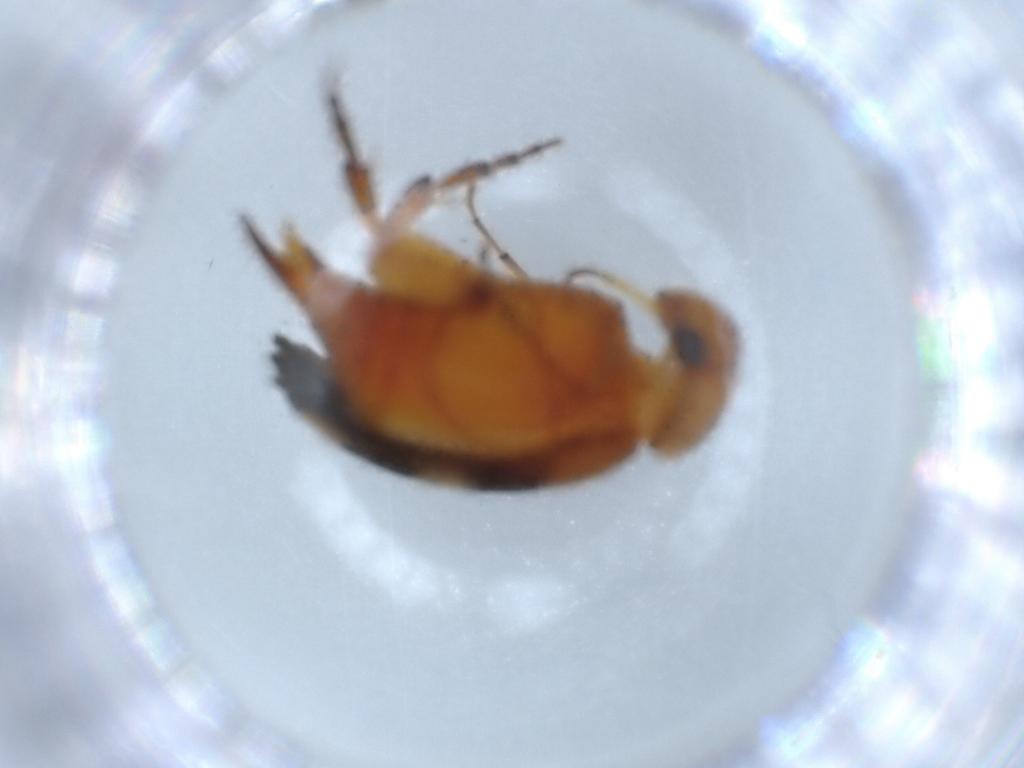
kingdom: Animalia
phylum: Arthropoda
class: Insecta
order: Coleoptera
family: Mordellidae
